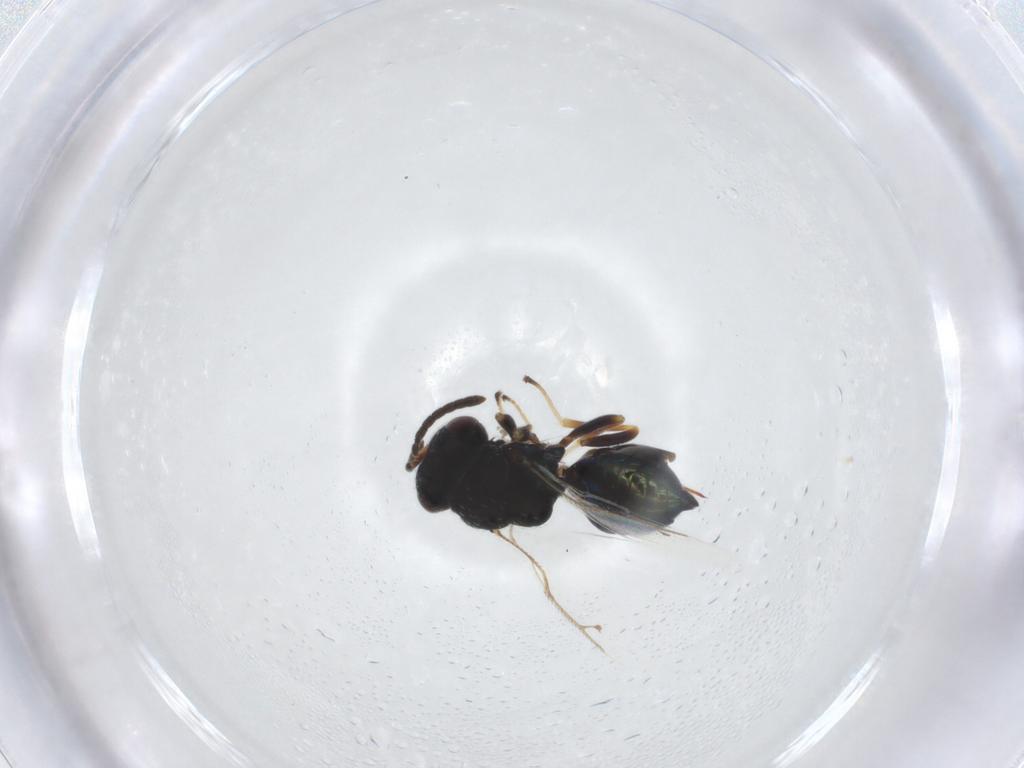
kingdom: Animalia
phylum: Arthropoda
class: Insecta
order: Hymenoptera
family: Pteromalidae
